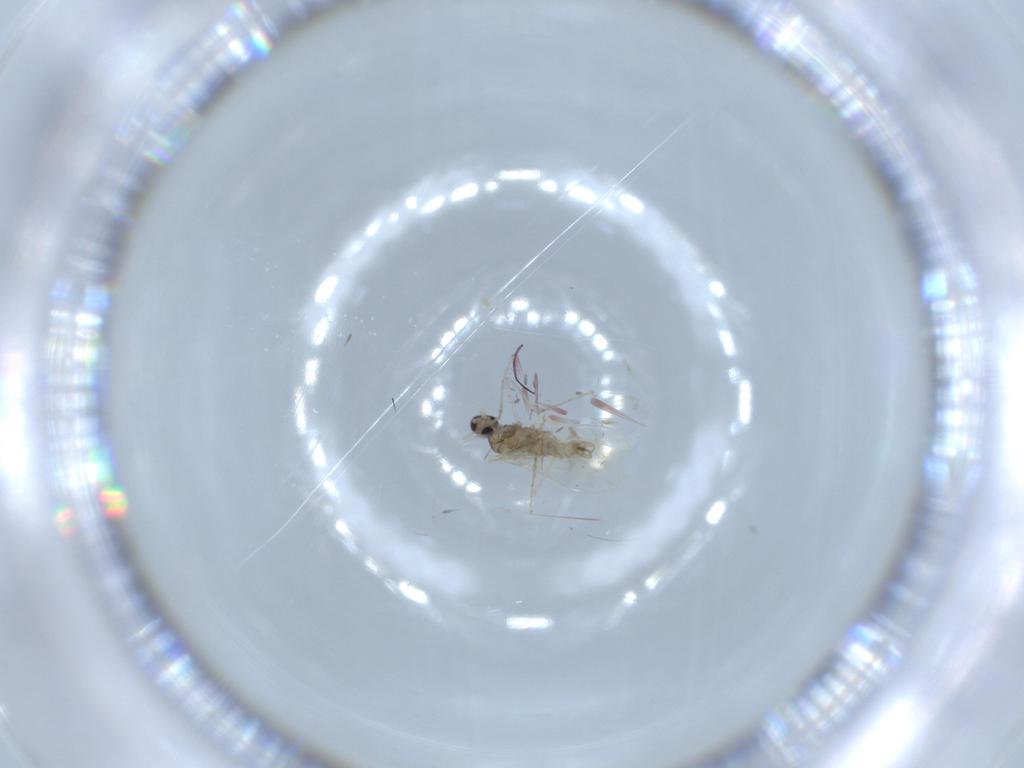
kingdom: Animalia
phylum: Arthropoda
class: Insecta
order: Diptera
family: Cecidomyiidae
